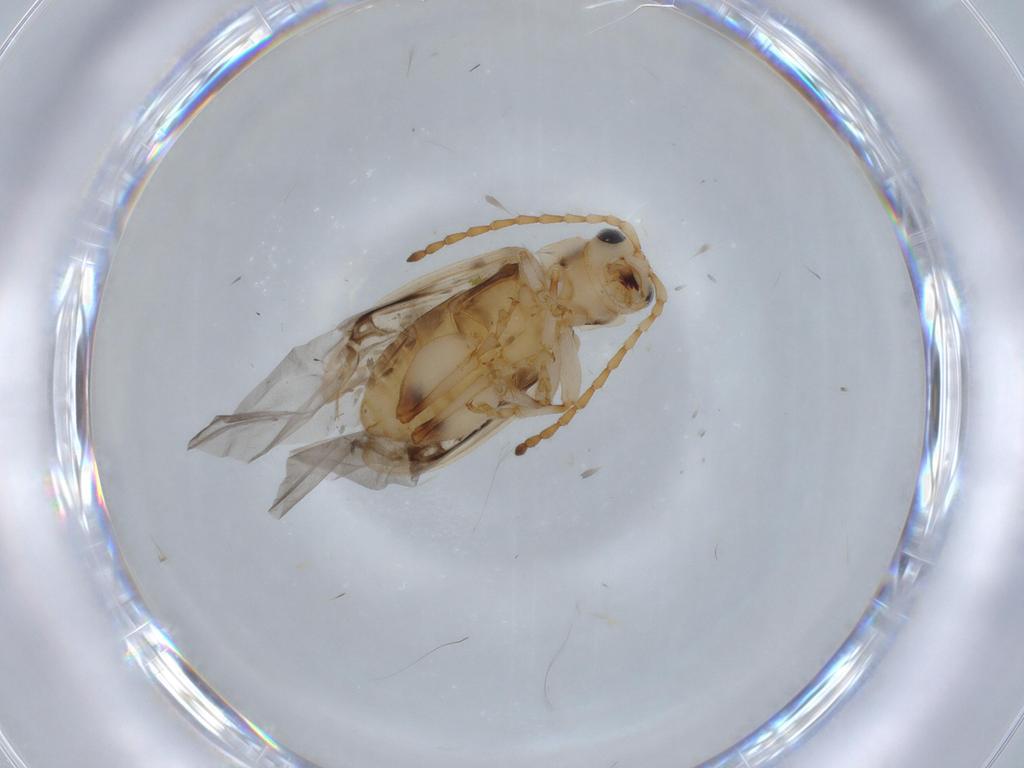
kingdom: Animalia
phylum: Arthropoda
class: Insecta
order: Coleoptera
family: Chrysomelidae
